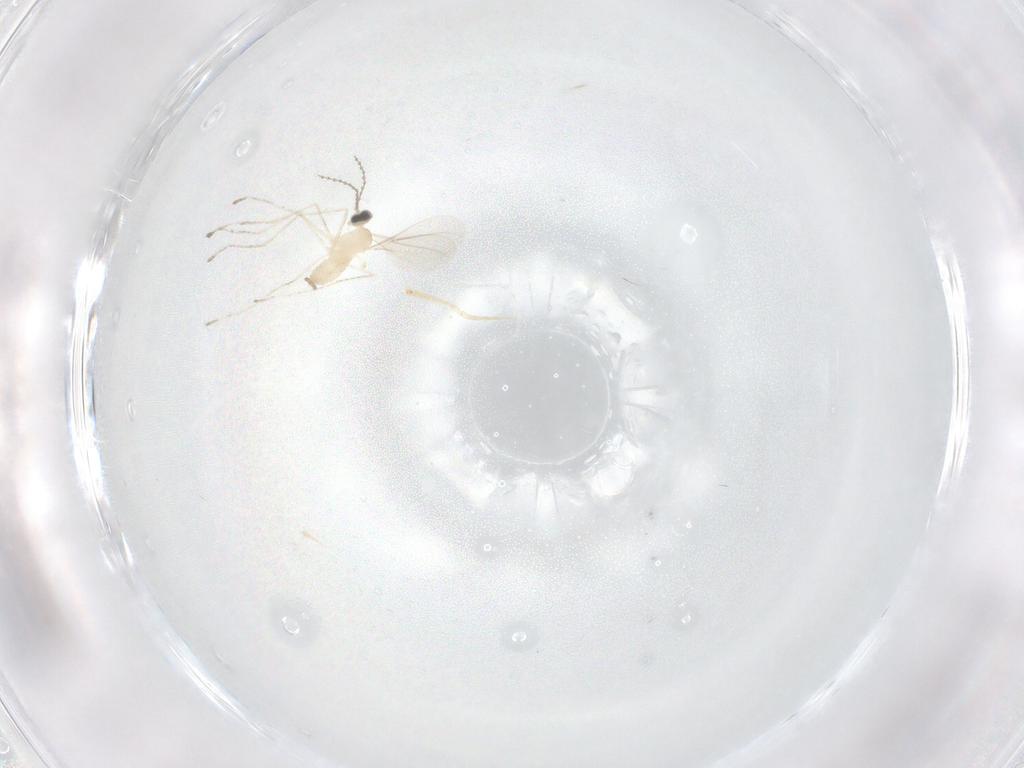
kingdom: Animalia
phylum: Arthropoda
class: Insecta
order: Diptera
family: Cecidomyiidae
